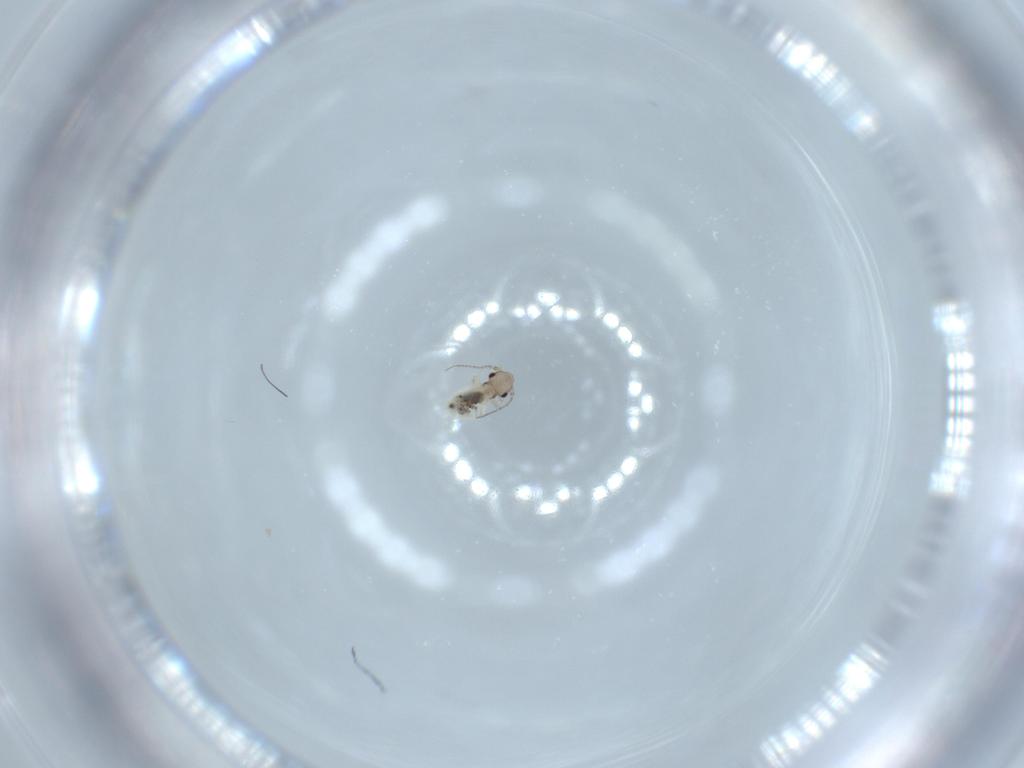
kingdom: Animalia
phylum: Arthropoda
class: Insecta
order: Psocodea
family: Lepidopsocidae
